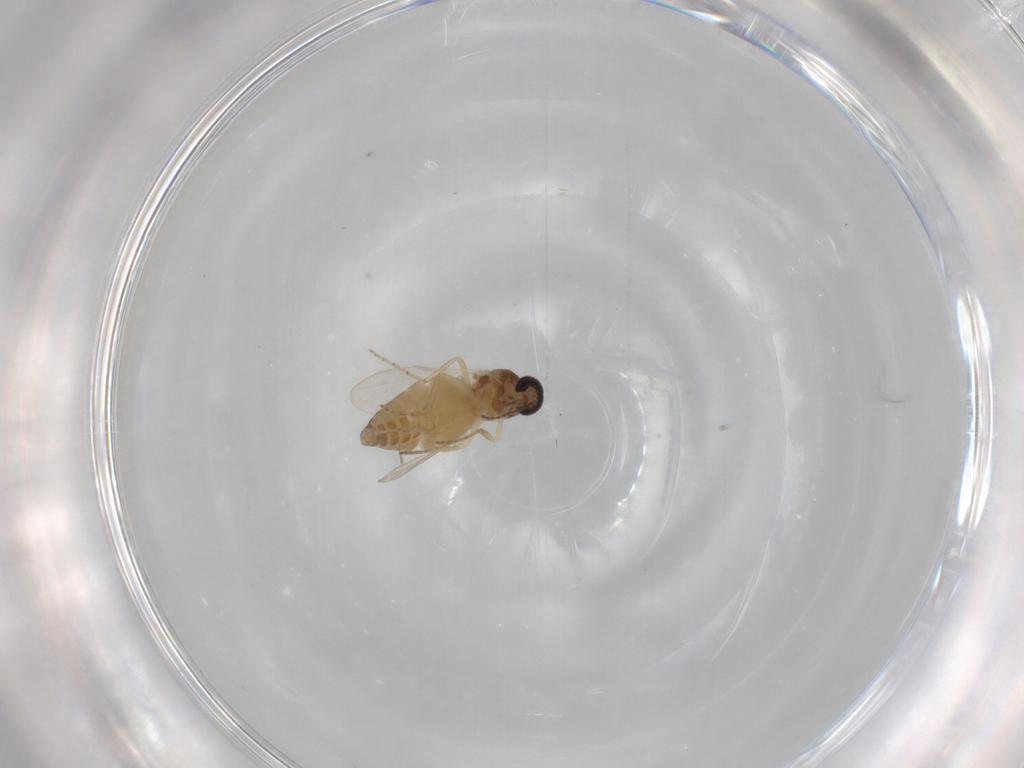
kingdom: Animalia
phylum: Arthropoda
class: Insecta
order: Diptera
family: Ceratopogonidae
